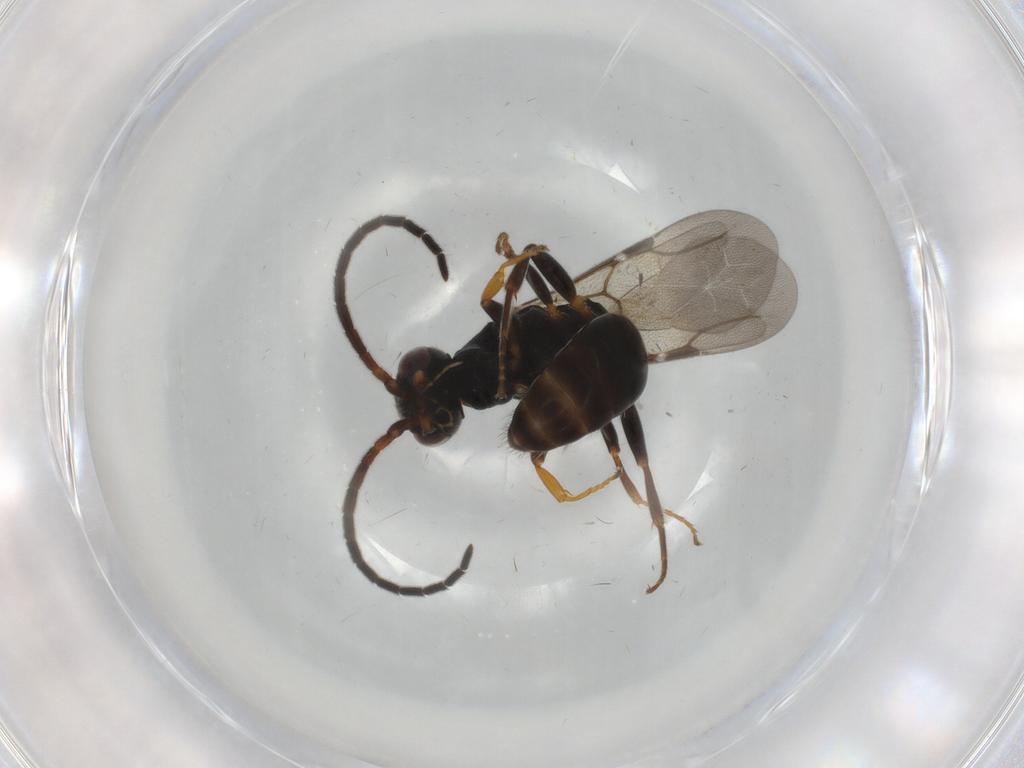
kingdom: Animalia
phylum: Arthropoda
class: Insecta
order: Hymenoptera
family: Bethylidae
